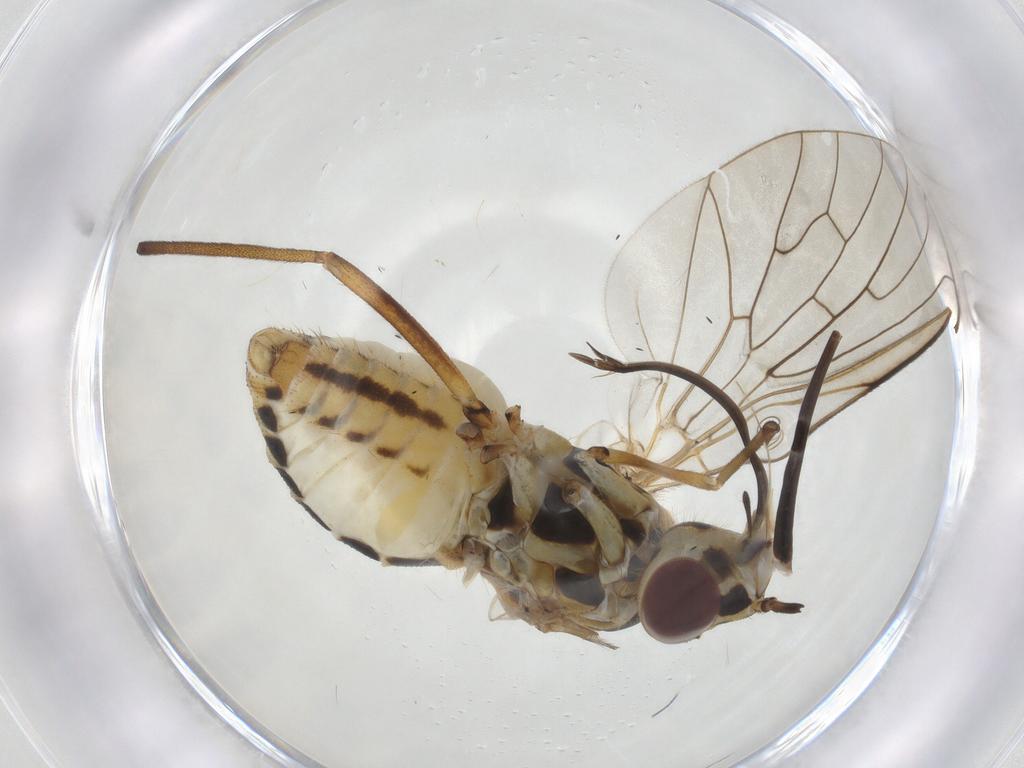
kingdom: Animalia
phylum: Arthropoda
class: Insecta
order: Diptera
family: Bombyliidae
